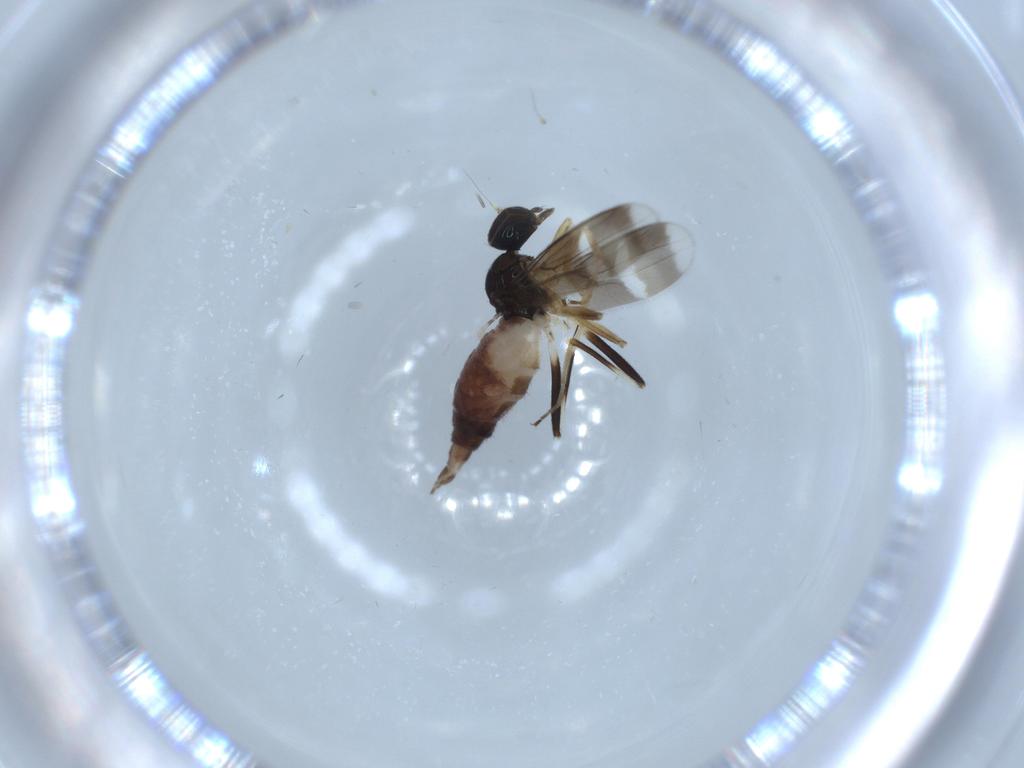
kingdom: Animalia
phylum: Arthropoda
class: Insecta
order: Diptera
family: Hybotidae
